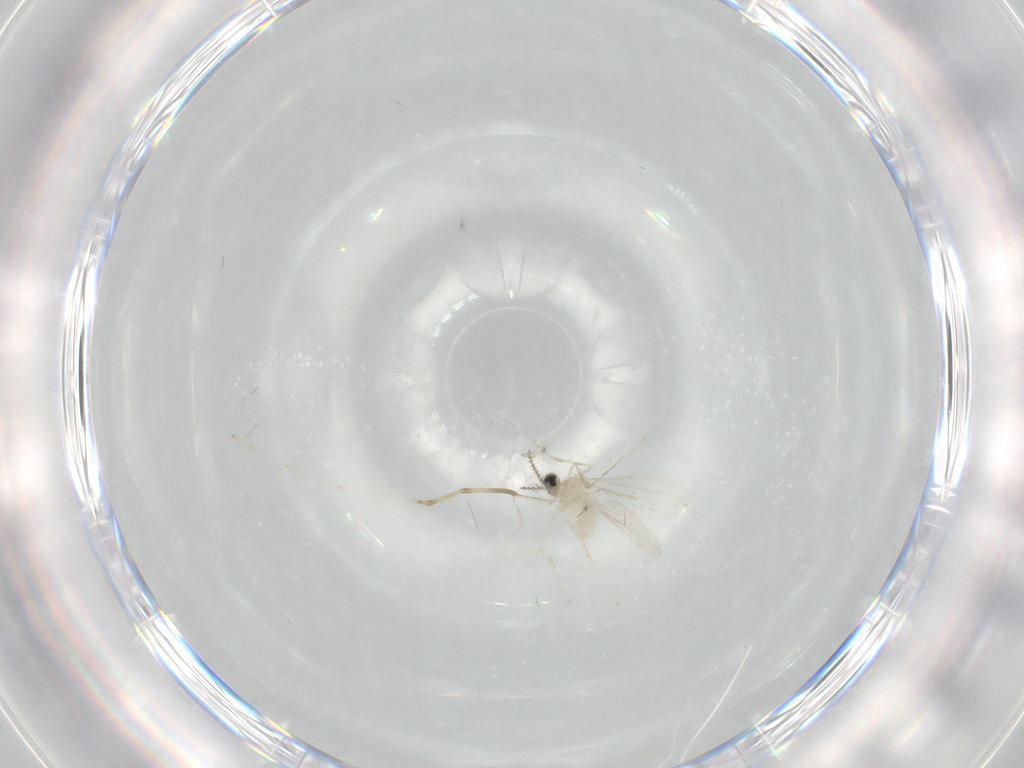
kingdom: Animalia
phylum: Arthropoda
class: Insecta
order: Diptera
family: Cecidomyiidae
